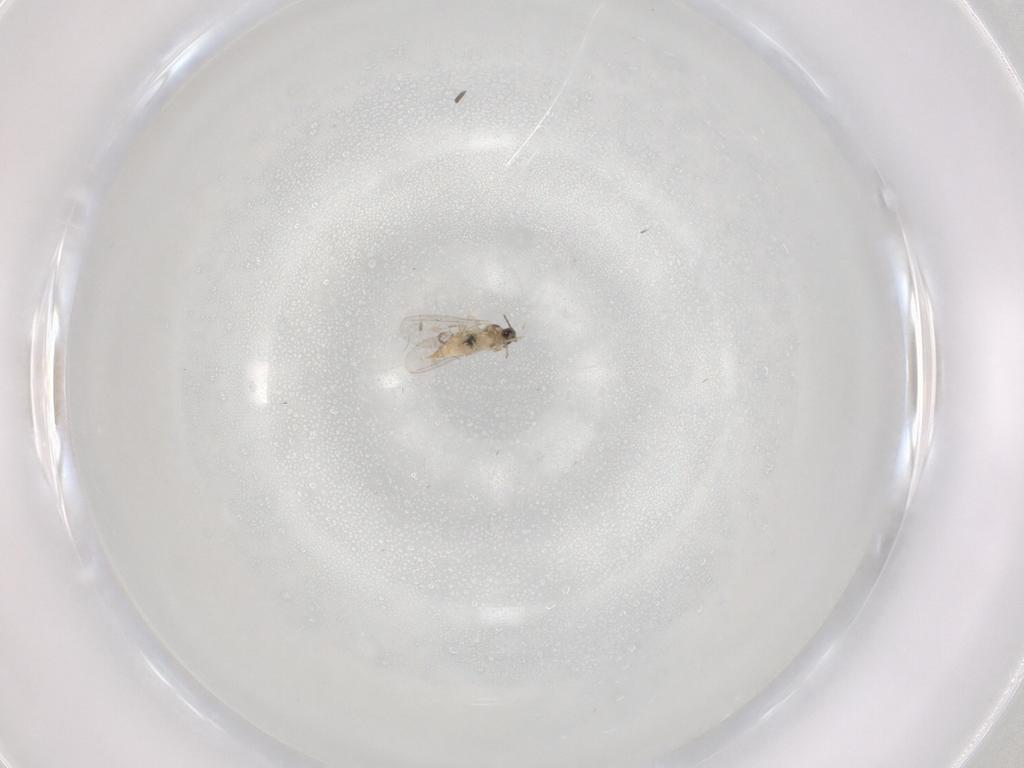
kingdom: Animalia
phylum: Arthropoda
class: Insecta
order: Diptera
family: Cecidomyiidae
